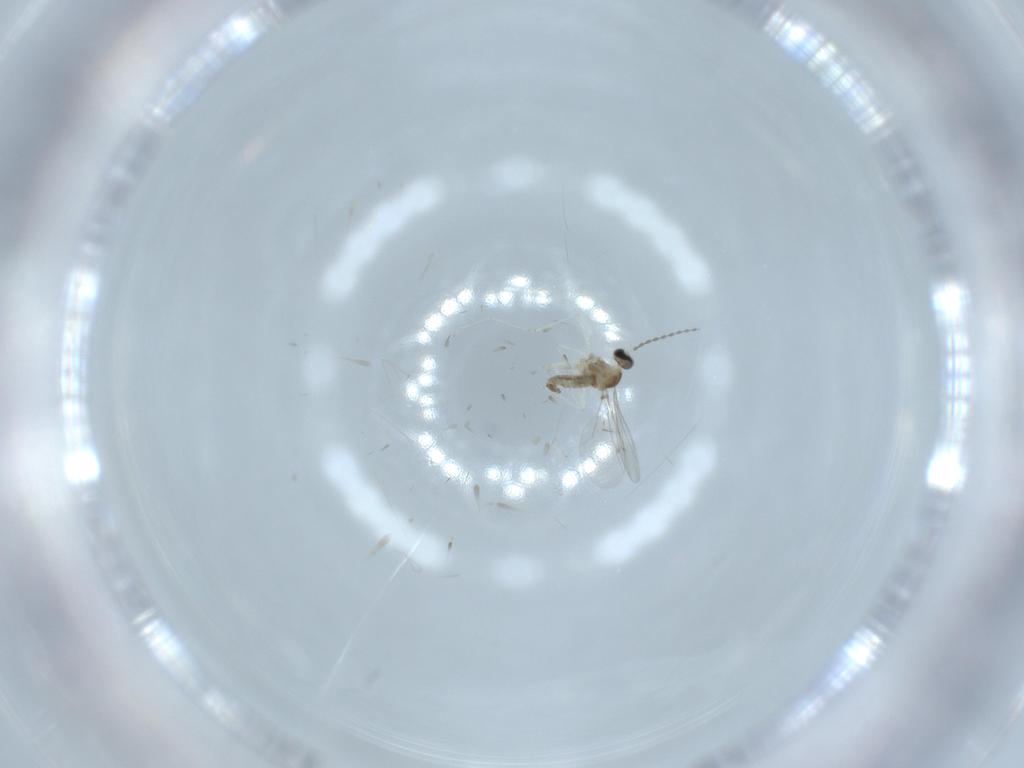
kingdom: Animalia
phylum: Arthropoda
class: Insecta
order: Diptera
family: Cecidomyiidae
